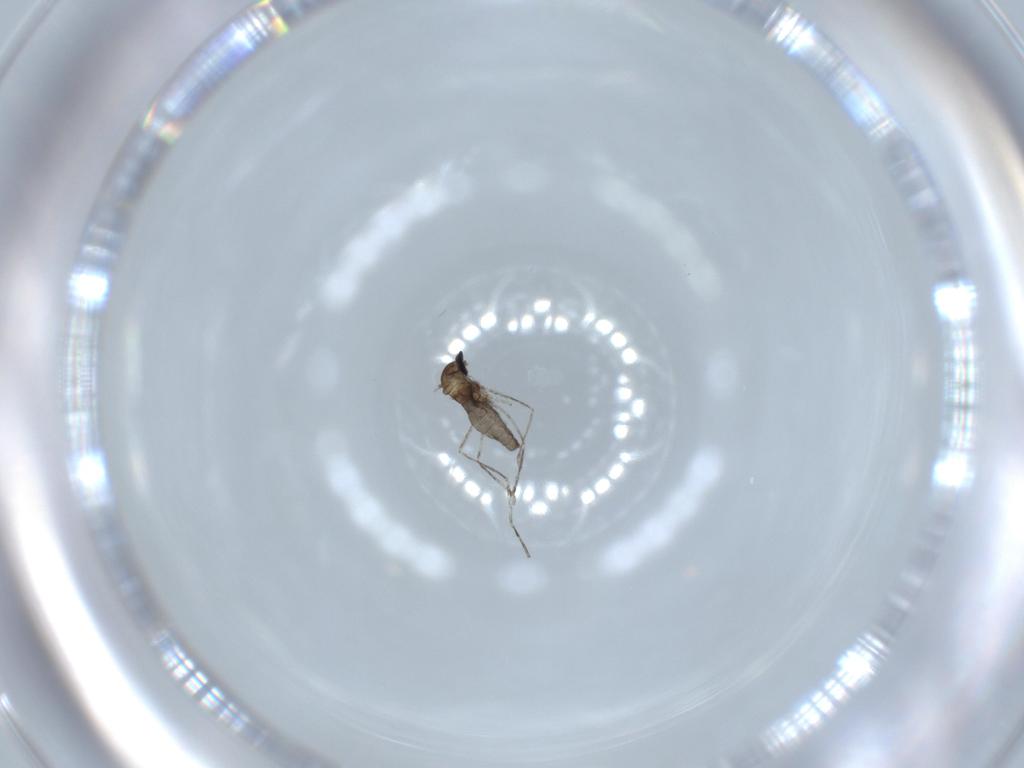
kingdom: Animalia
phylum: Arthropoda
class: Insecta
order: Diptera
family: Cecidomyiidae
